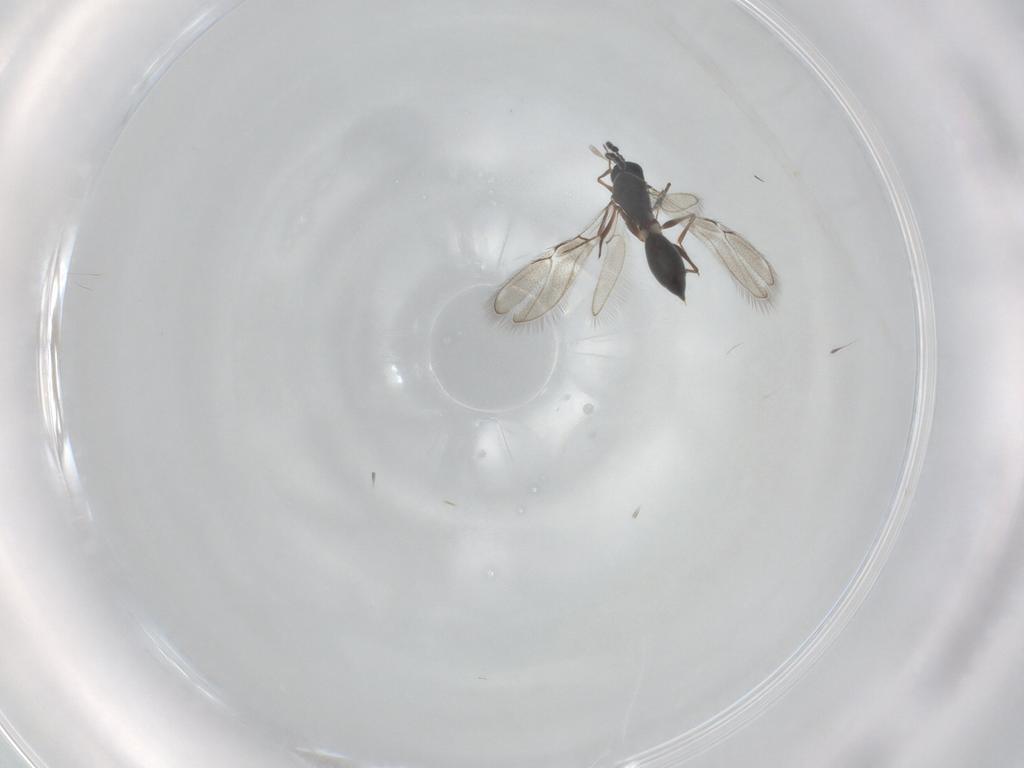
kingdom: Animalia
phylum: Arthropoda
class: Insecta
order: Hymenoptera
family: Figitidae
